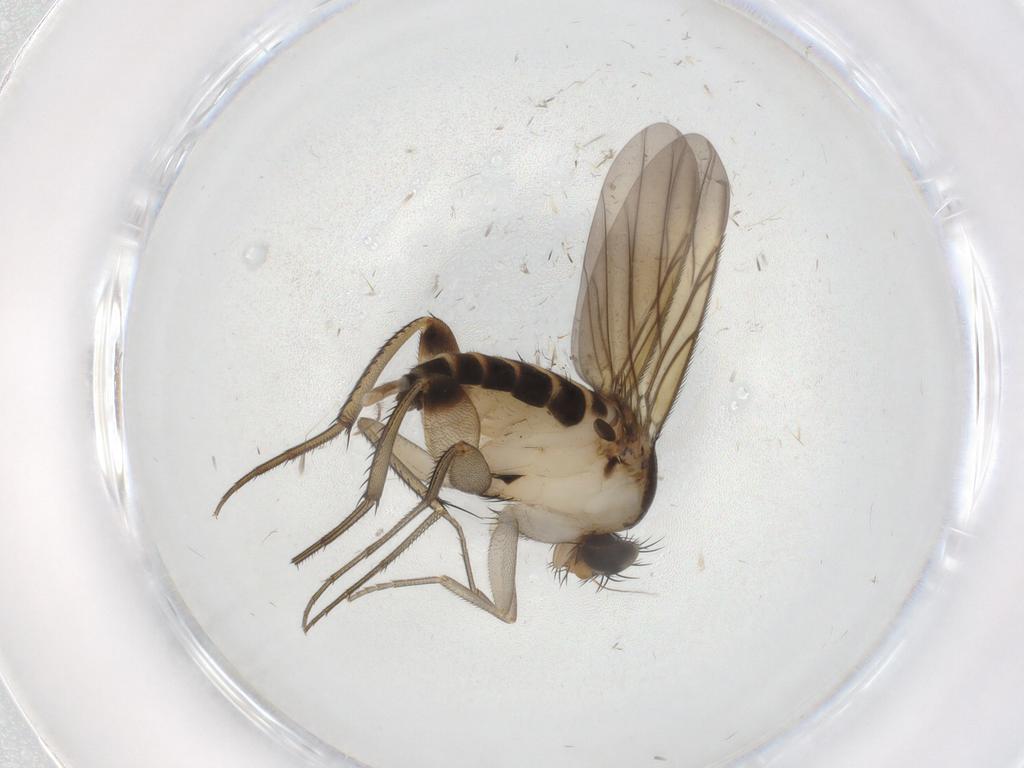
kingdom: Animalia
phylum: Arthropoda
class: Insecta
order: Diptera
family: Phoridae
